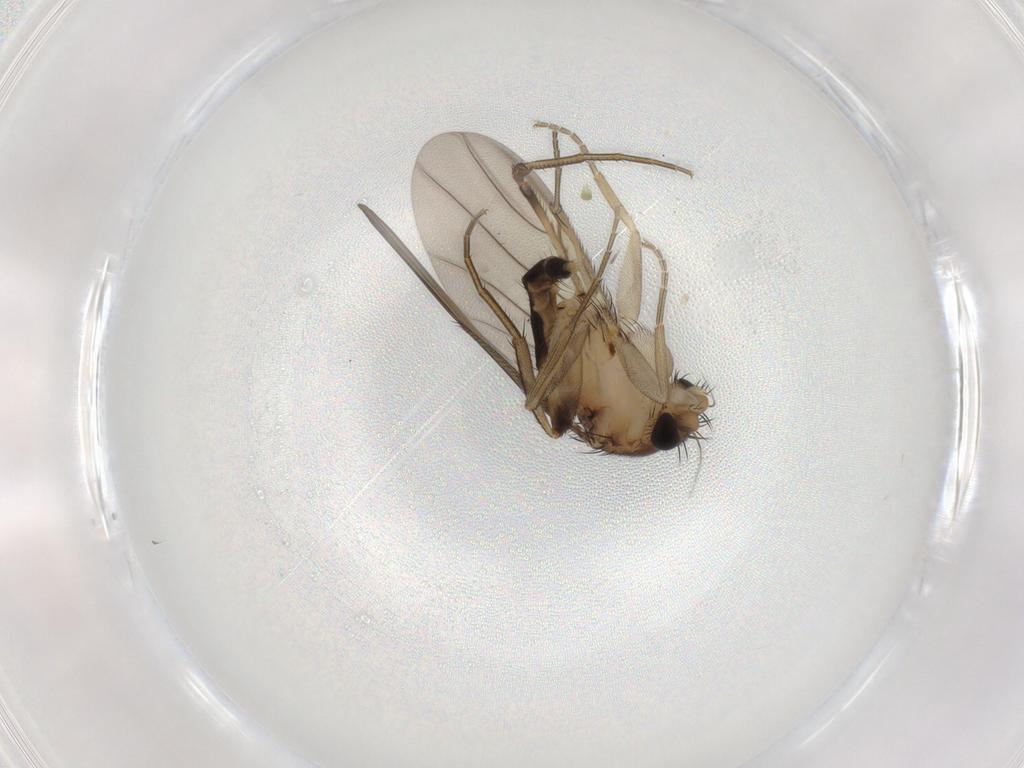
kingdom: Animalia
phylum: Arthropoda
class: Insecta
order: Diptera
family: Phoridae
